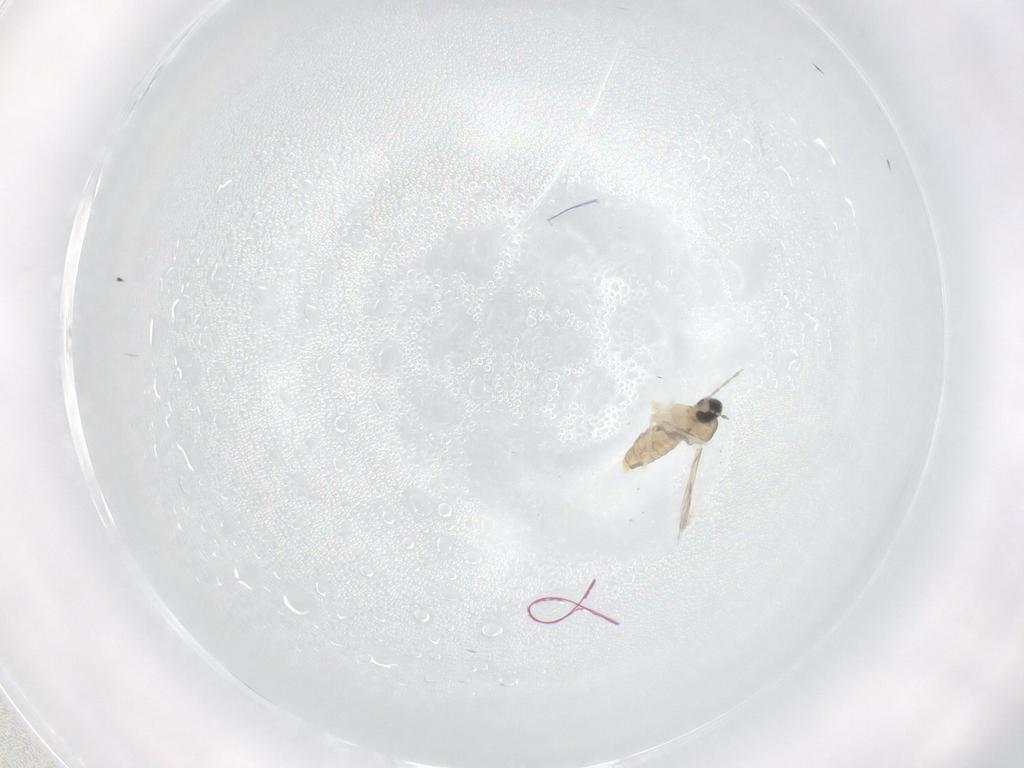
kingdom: Animalia
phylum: Arthropoda
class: Insecta
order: Diptera
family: Cecidomyiidae
